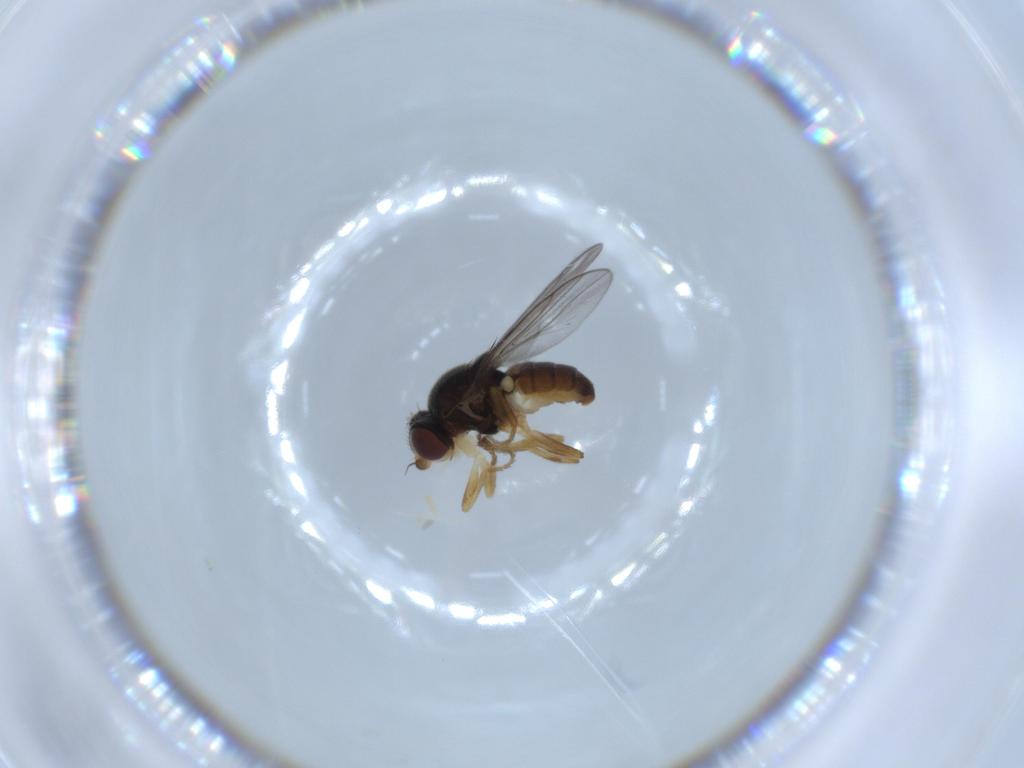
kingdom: Animalia
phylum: Arthropoda
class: Insecta
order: Diptera
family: Chloropidae
